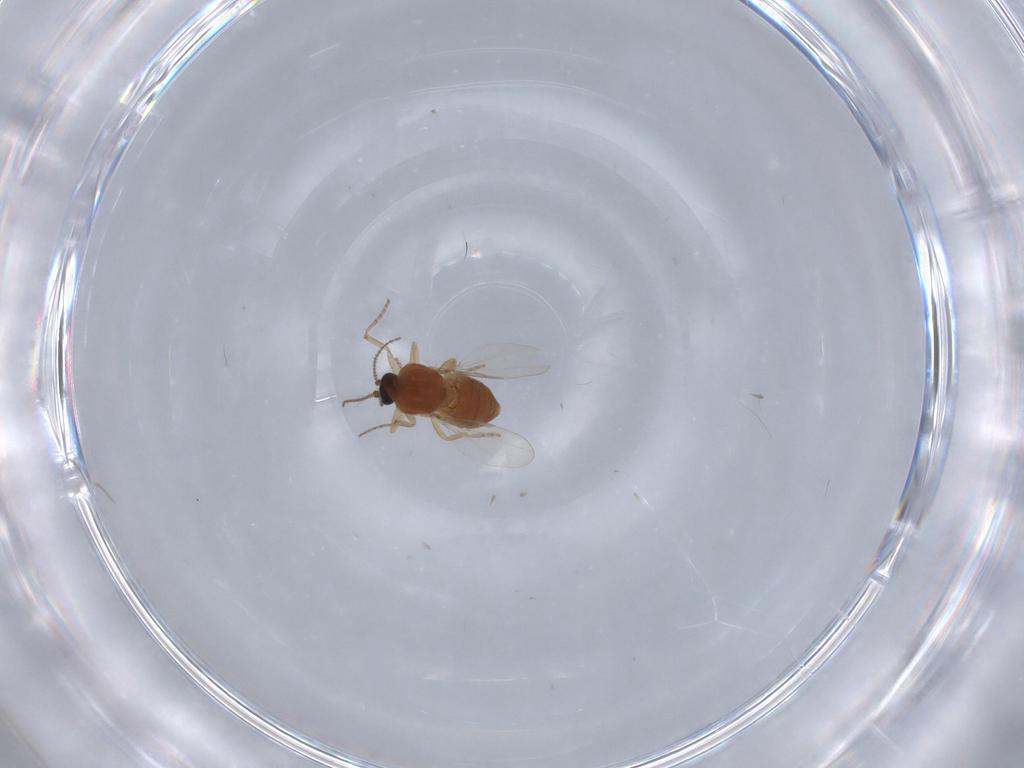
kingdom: Animalia
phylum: Arthropoda
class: Insecta
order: Diptera
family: Ceratopogonidae
